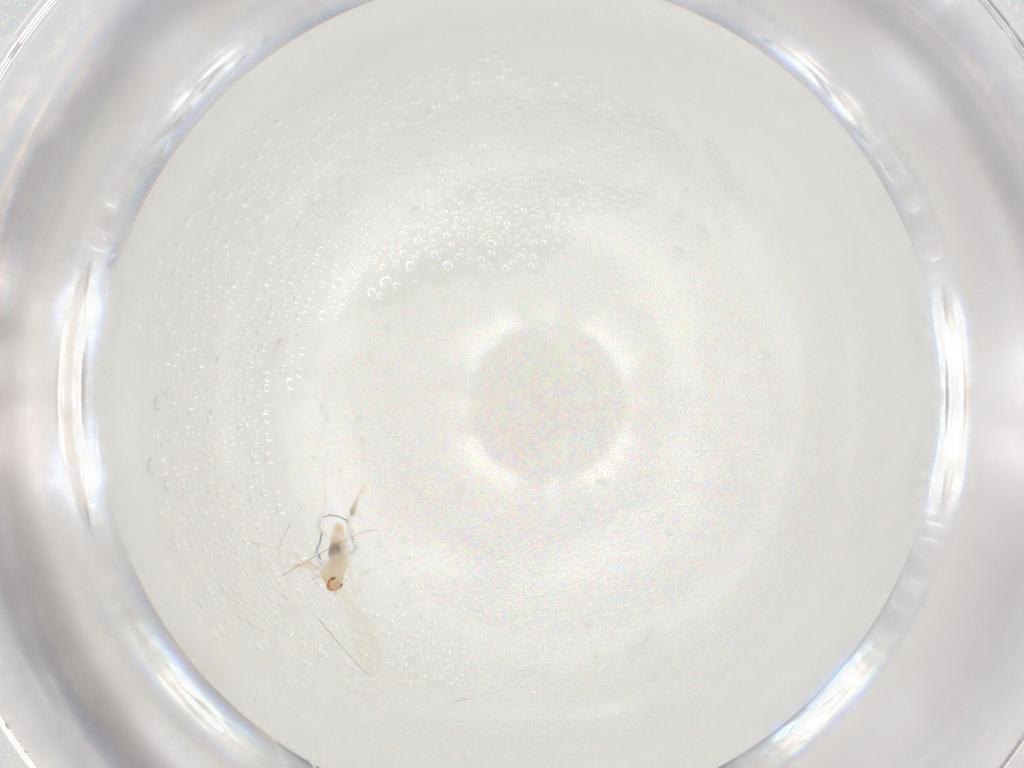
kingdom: Animalia
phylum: Arthropoda
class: Insecta
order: Diptera
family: Cecidomyiidae
